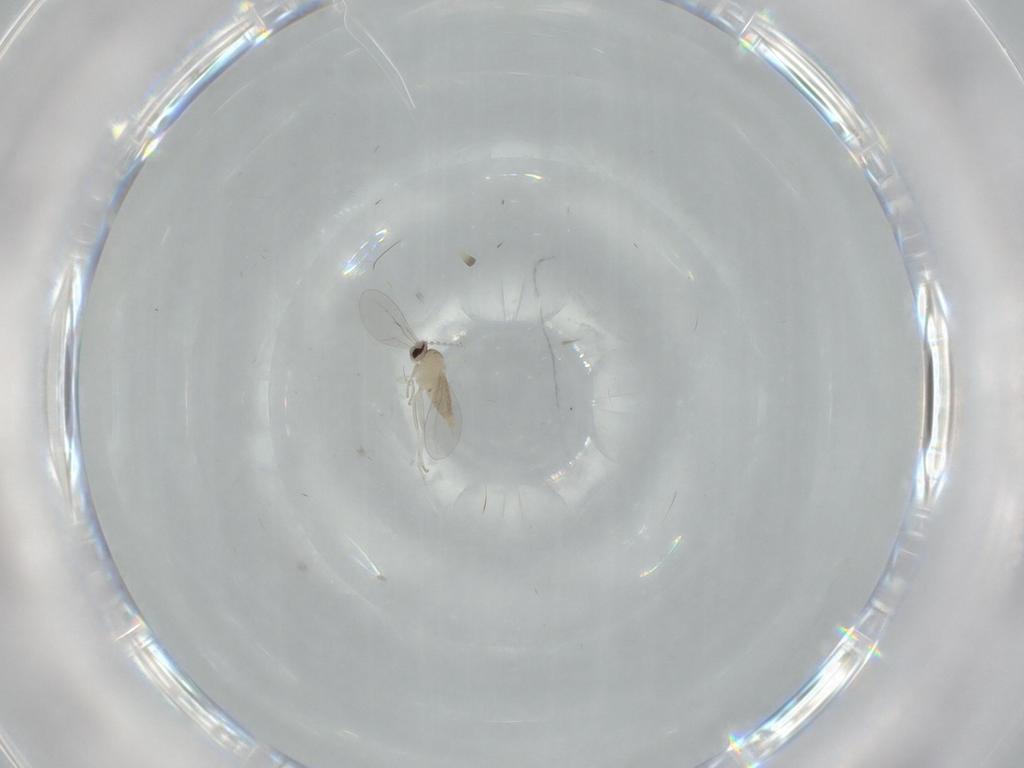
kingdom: Animalia
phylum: Arthropoda
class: Insecta
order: Diptera
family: Cecidomyiidae
